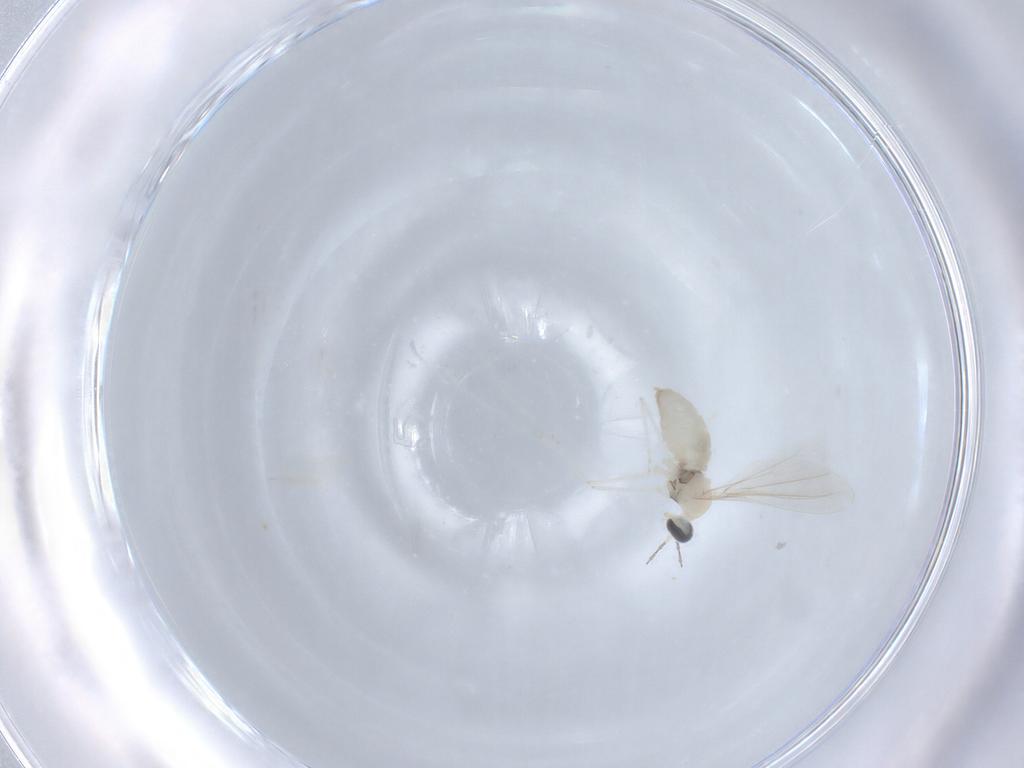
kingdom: Animalia
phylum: Arthropoda
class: Insecta
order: Diptera
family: Cecidomyiidae
